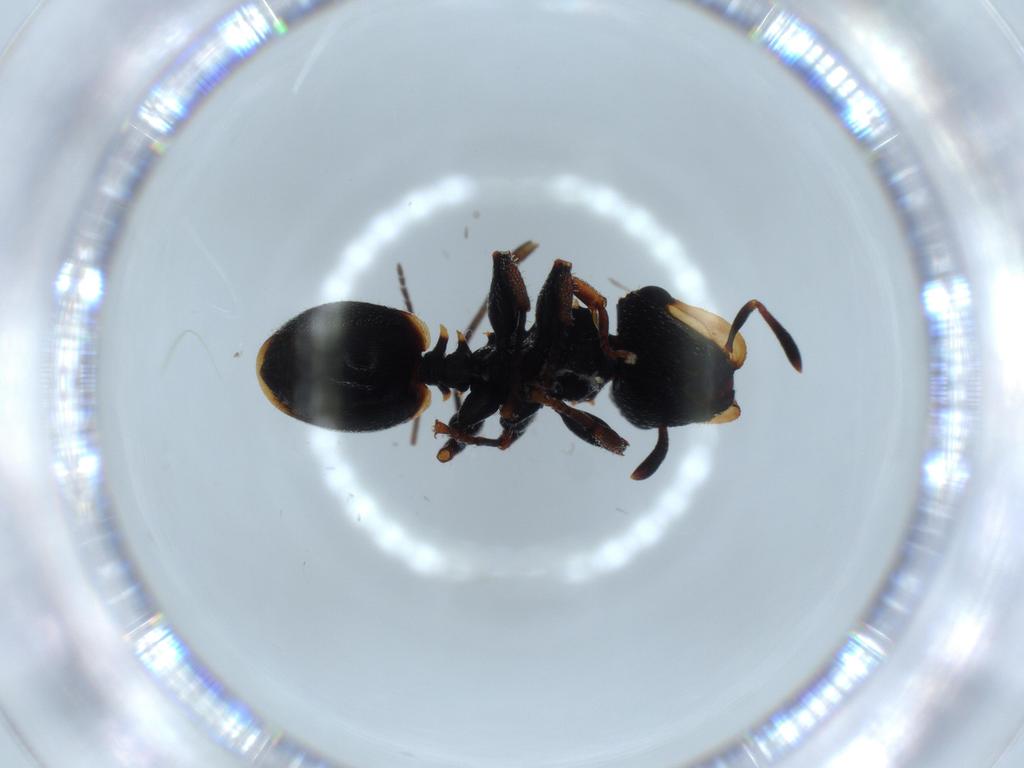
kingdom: Animalia
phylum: Arthropoda
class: Insecta
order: Hymenoptera
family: Formicidae
